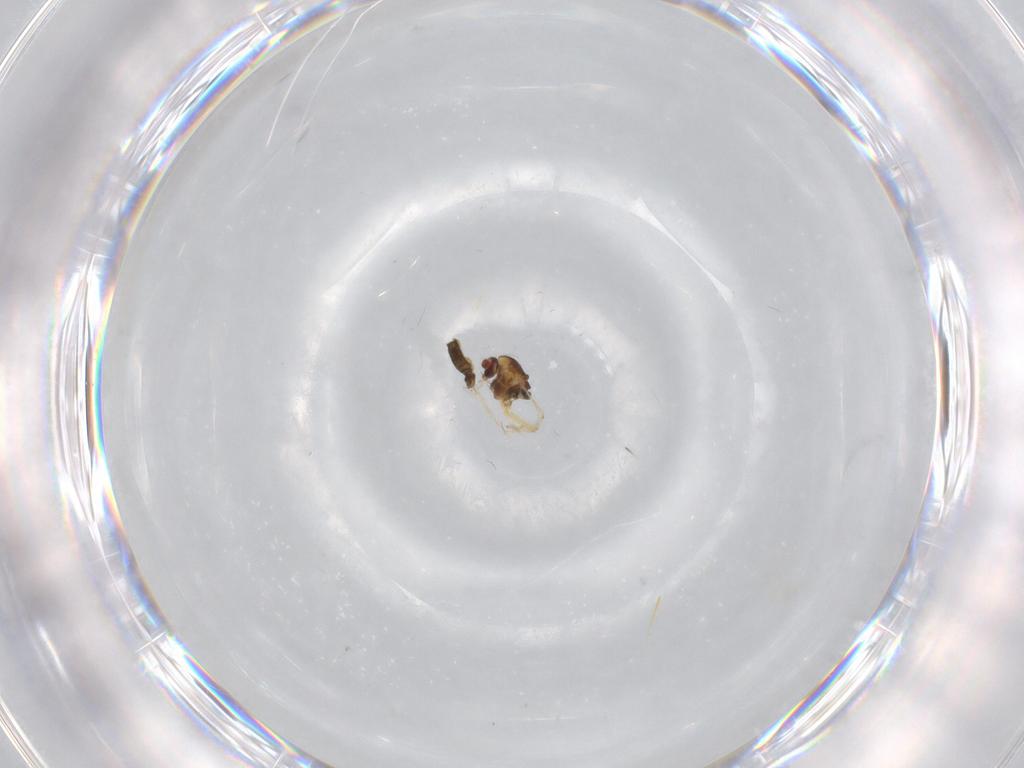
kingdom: Animalia
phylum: Arthropoda
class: Insecta
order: Diptera
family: Chironomidae
